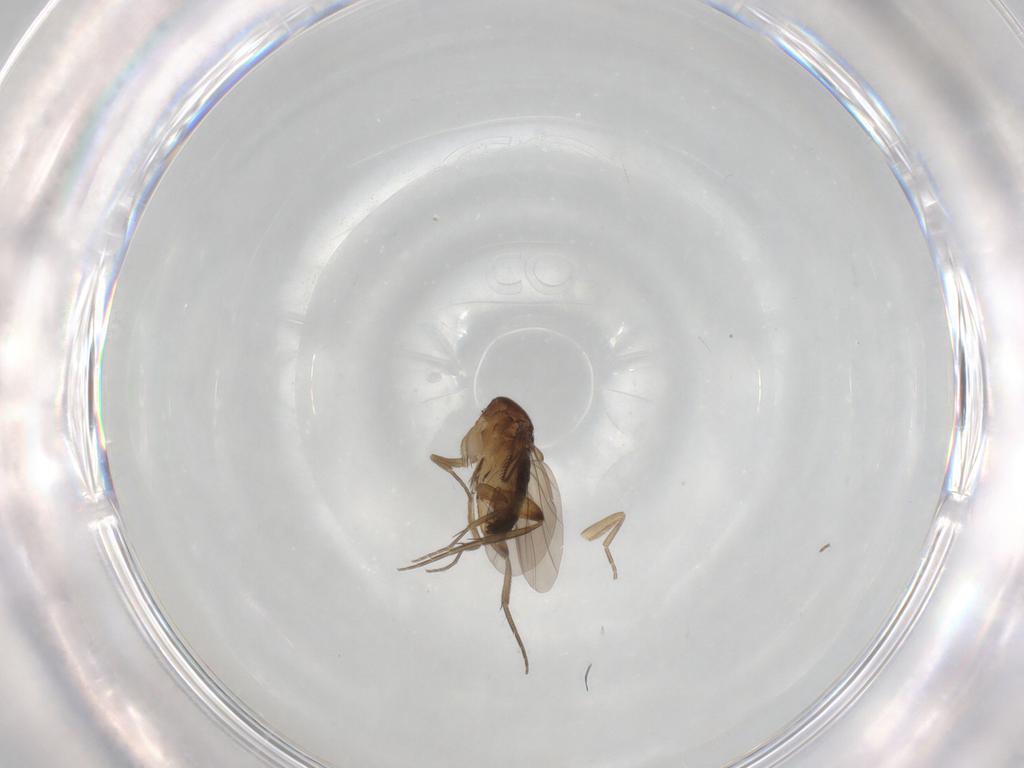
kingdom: Animalia
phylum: Arthropoda
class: Insecta
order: Diptera
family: Phoridae
